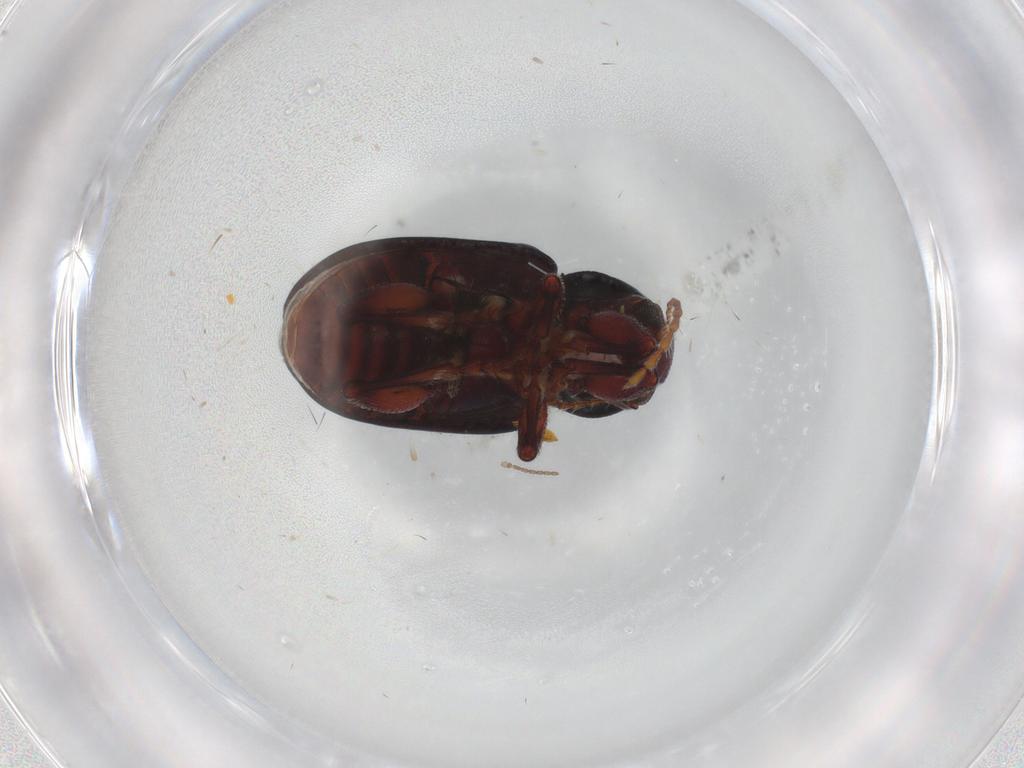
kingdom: Animalia
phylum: Arthropoda
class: Insecta
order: Coleoptera
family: Chrysomelidae
